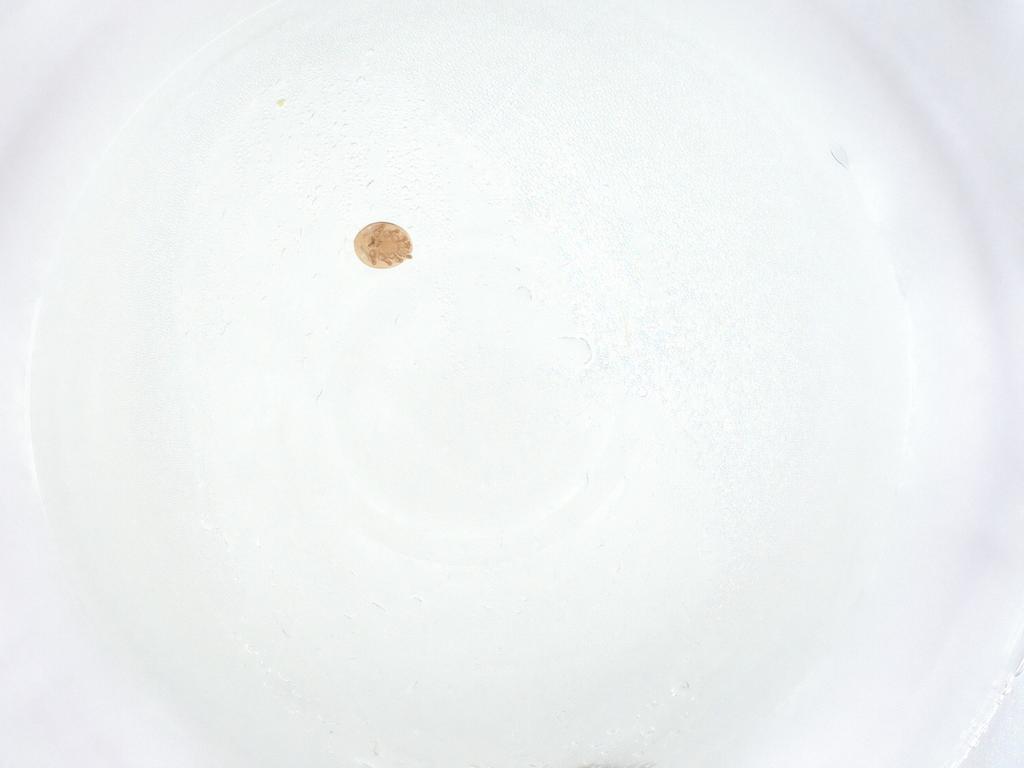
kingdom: Animalia
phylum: Arthropoda
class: Arachnida
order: Mesostigmata
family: Trematuridae
